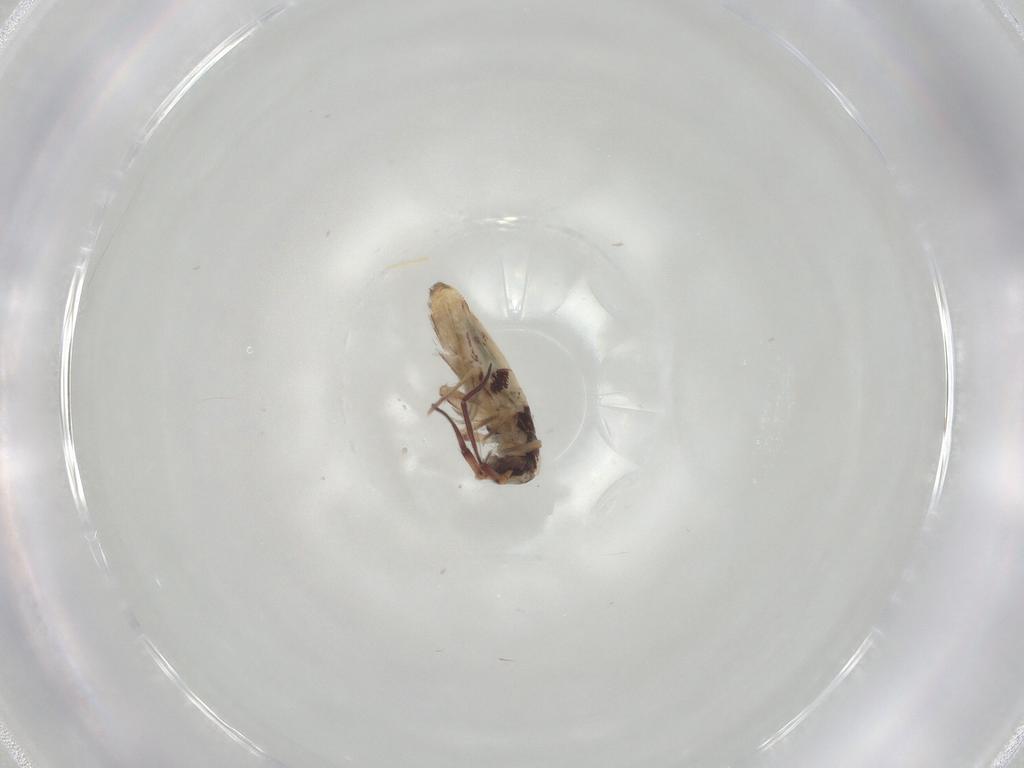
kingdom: Animalia
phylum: Arthropoda
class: Collembola
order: Entomobryomorpha
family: Entomobryidae
